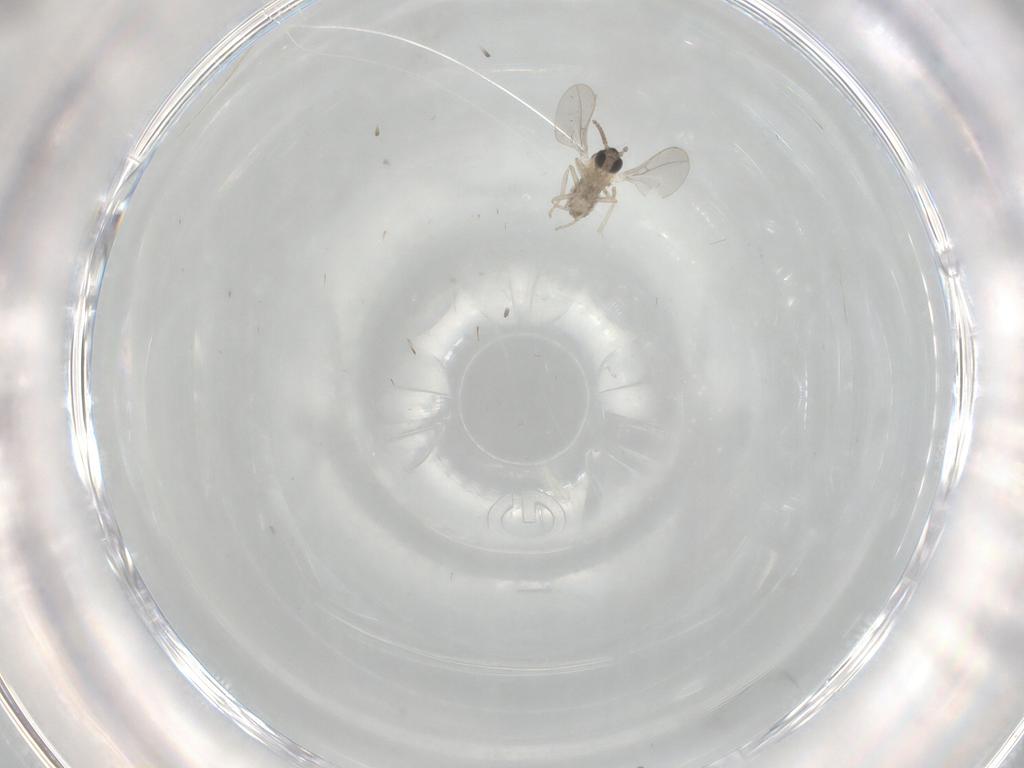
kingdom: Animalia
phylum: Arthropoda
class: Insecta
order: Diptera
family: Cecidomyiidae
